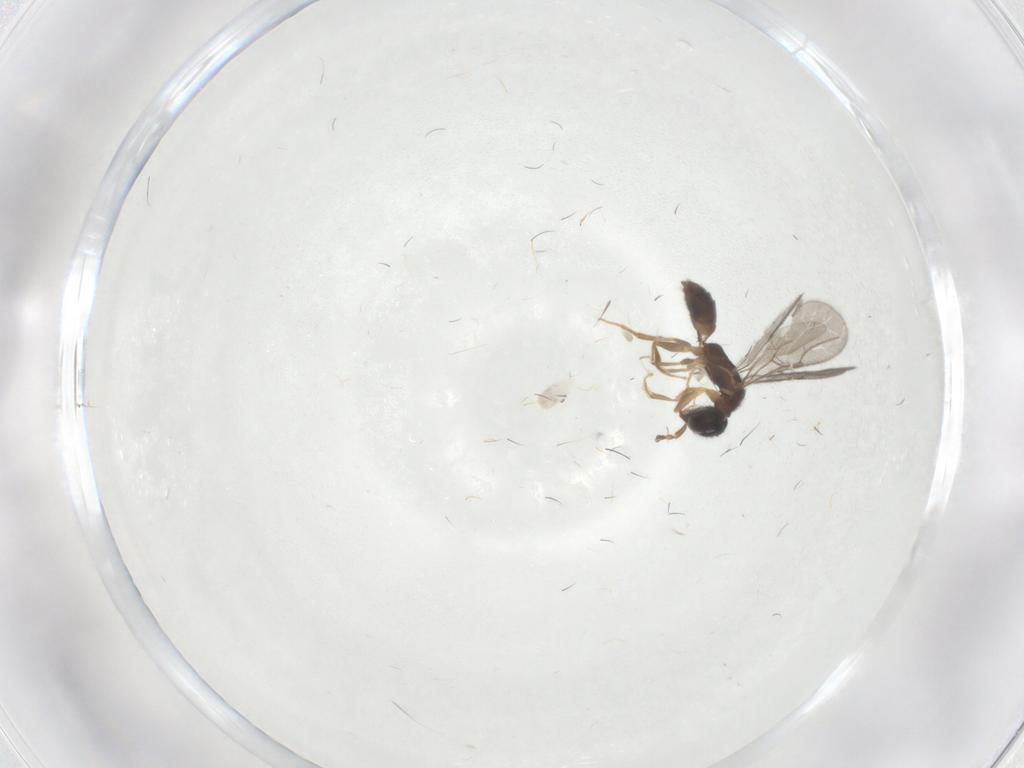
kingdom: Animalia
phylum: Arthropoda
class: Insecta
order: Hymenoptera
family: Bethylidae
